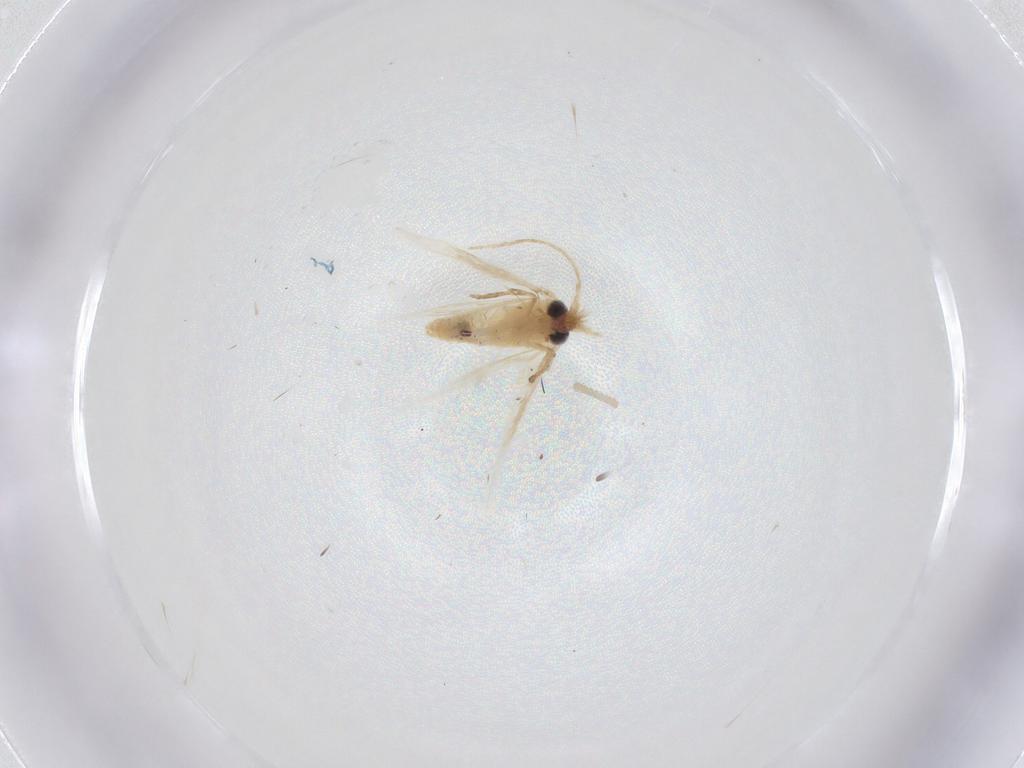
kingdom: Animalia
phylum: Arthropoda
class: Insecta
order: Lepidoptera
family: Nepticulidae
